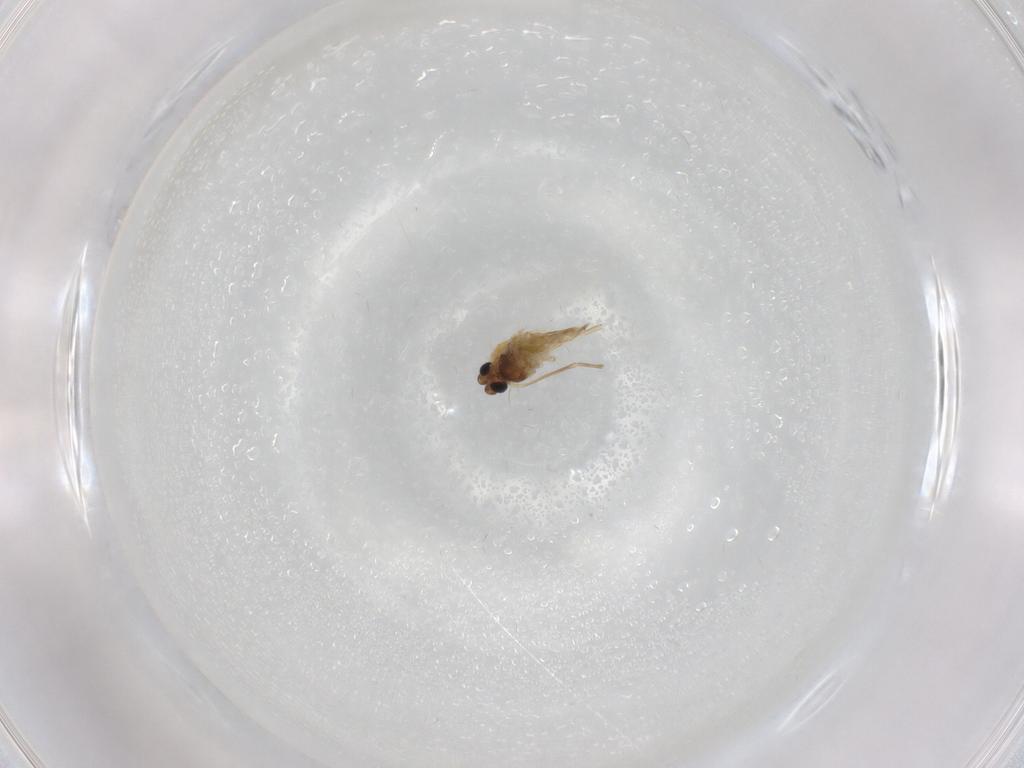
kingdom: Animalia
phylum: Arthropoda
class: Insecta
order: Diptera
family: Chironomidae
